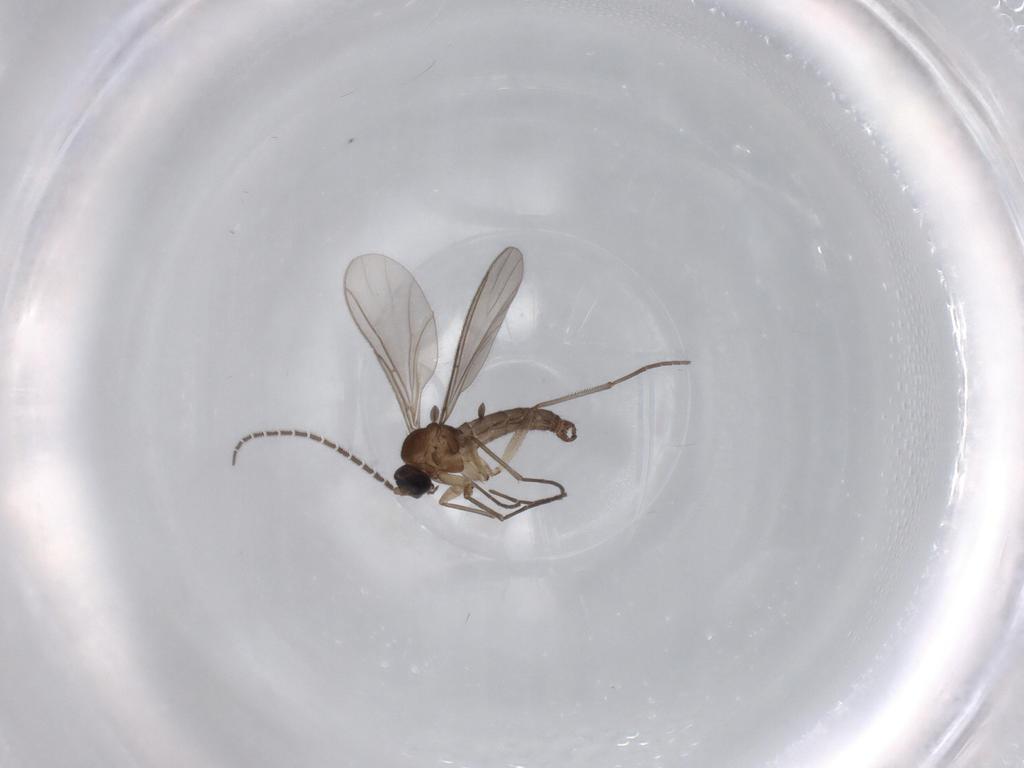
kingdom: Animalia
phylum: Arthropoda
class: Insecta
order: Diptera
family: Sciaridae
